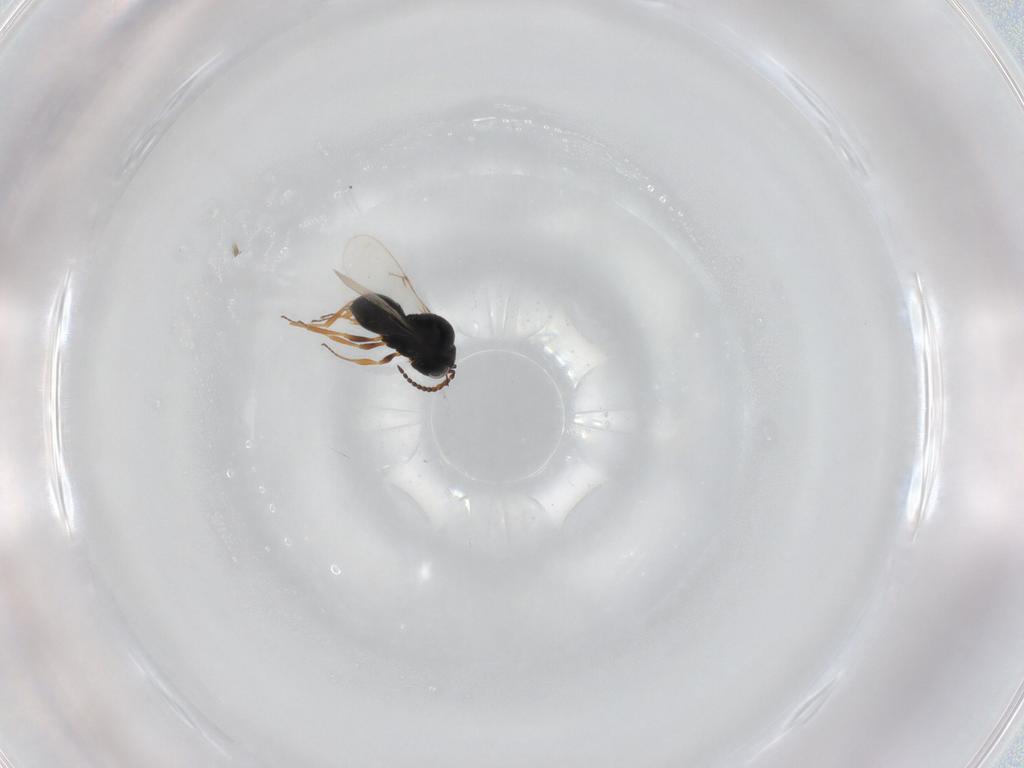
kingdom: Animalia
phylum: Arthropoda
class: Insecta
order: Hymenoptera
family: Scelionidae
